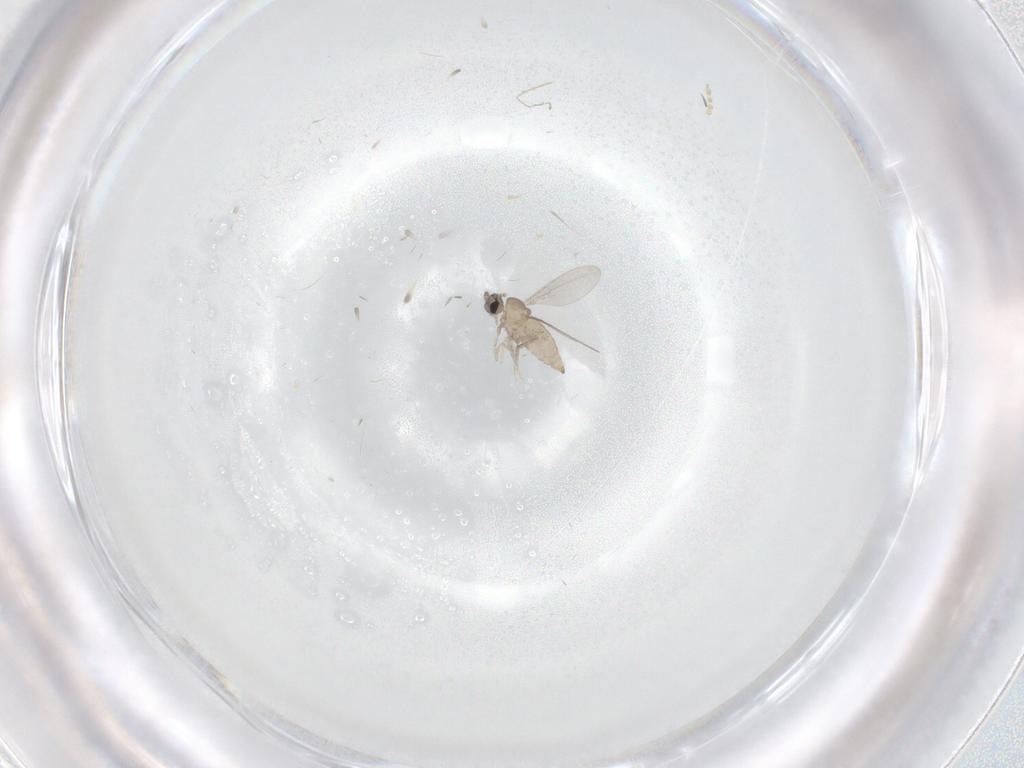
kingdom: Animalia
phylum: Arthropoda
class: Insecta
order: Diptera
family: Cecidomyiidae
